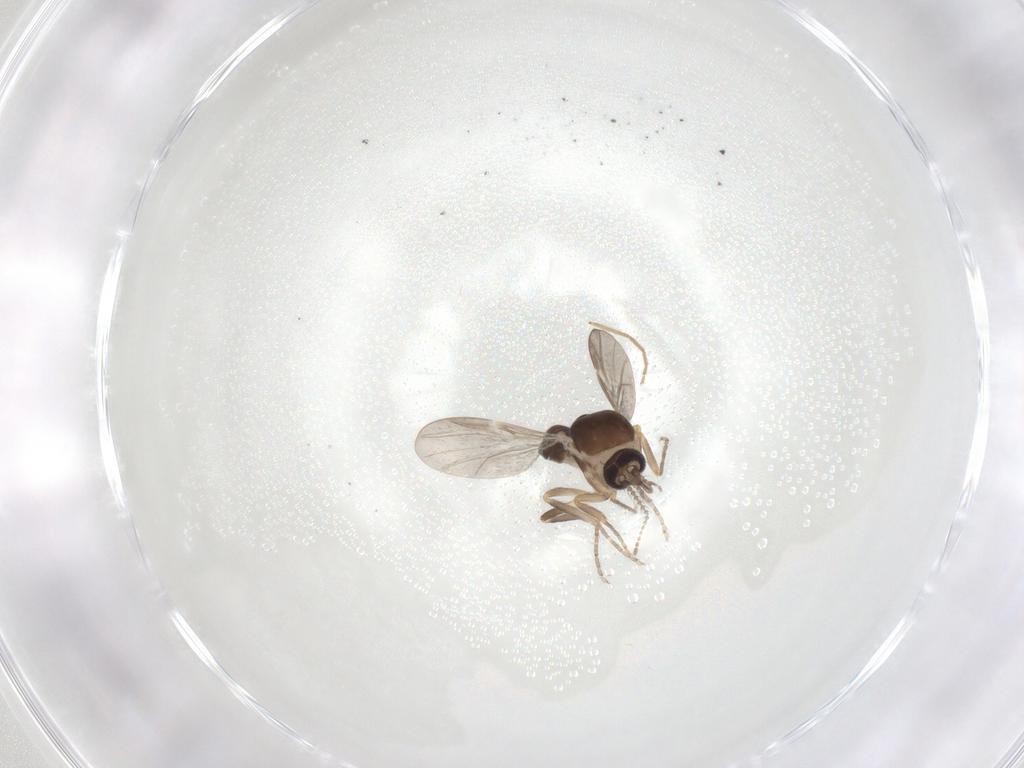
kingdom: Animalia
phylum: Arthropoda
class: Insecta
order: Diptera
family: Ceratopogonidae
